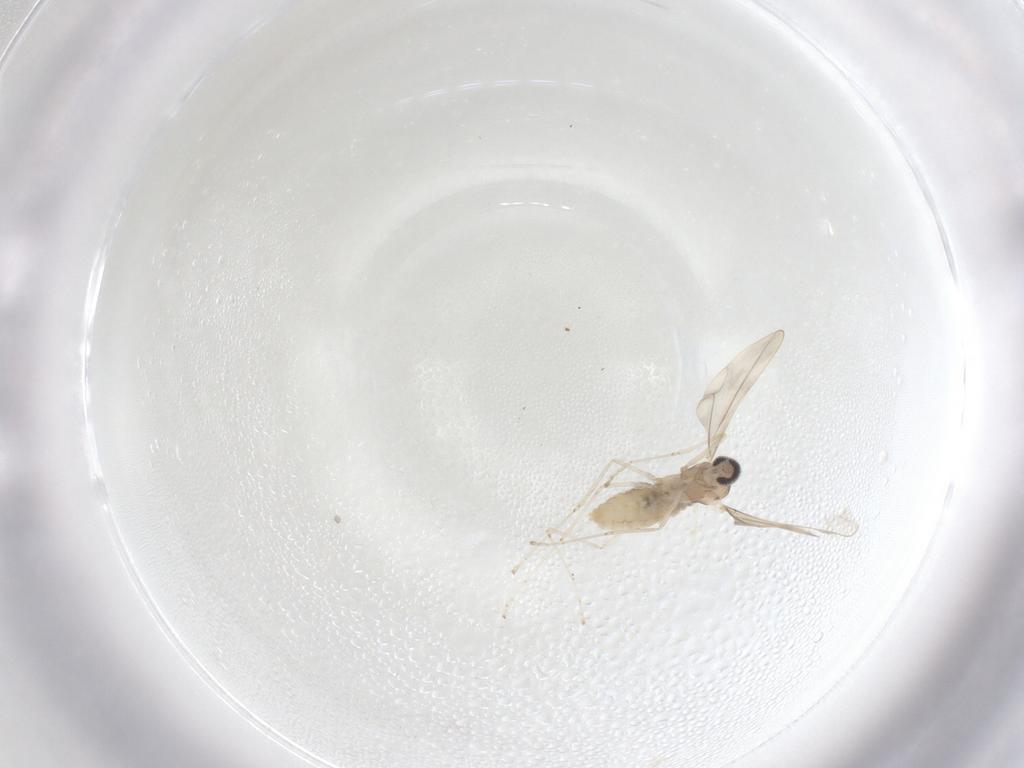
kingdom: Animalia
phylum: Arthropoda
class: Insecta
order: Diptera
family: Cecidomyiidae
